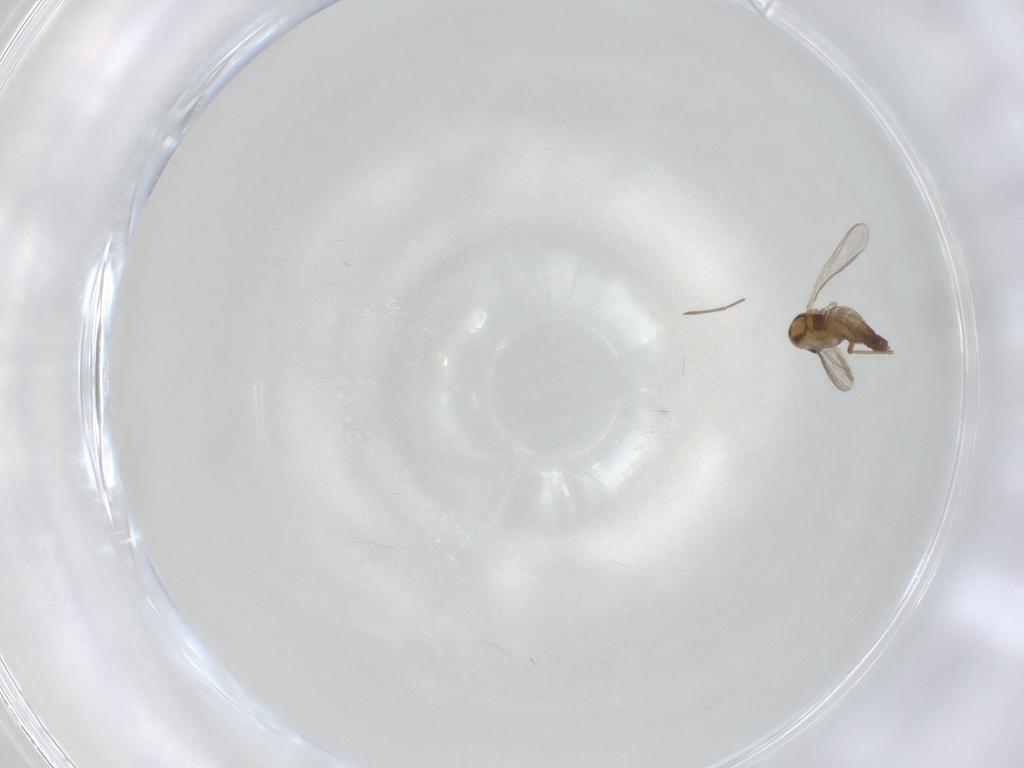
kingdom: Animalia
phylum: Arthropoda
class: Insecta
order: Diptera
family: Chironomidae
